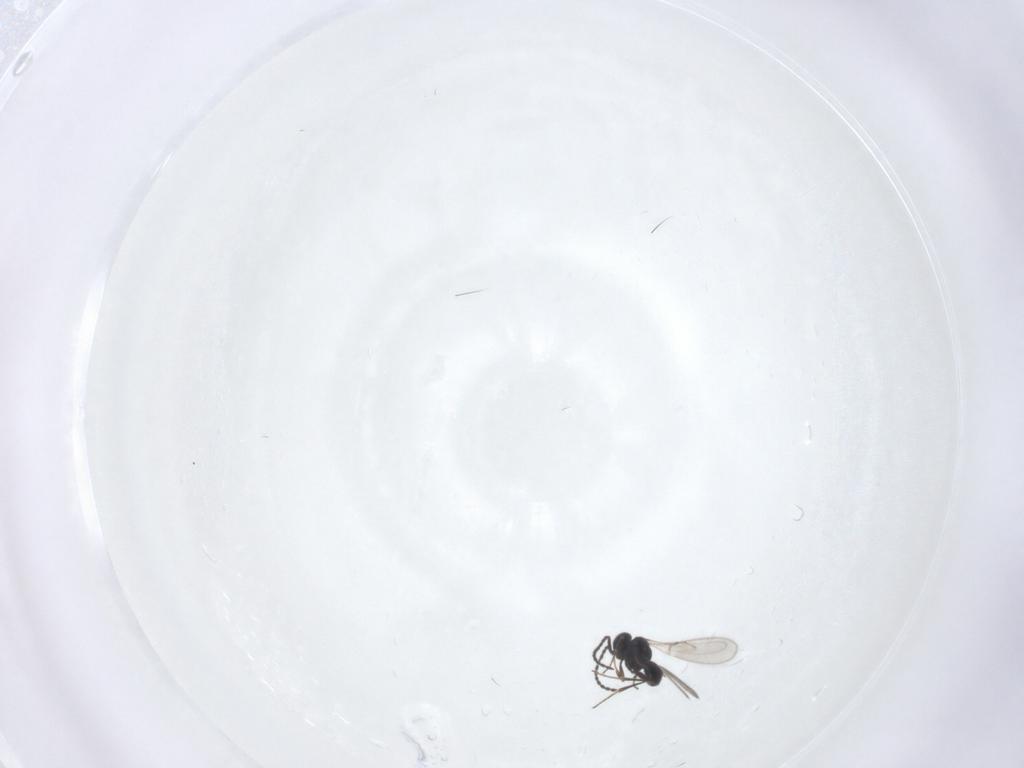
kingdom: Animalia
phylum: Arthropoda
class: Insecta
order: Hymenoptera
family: Scelionidae
